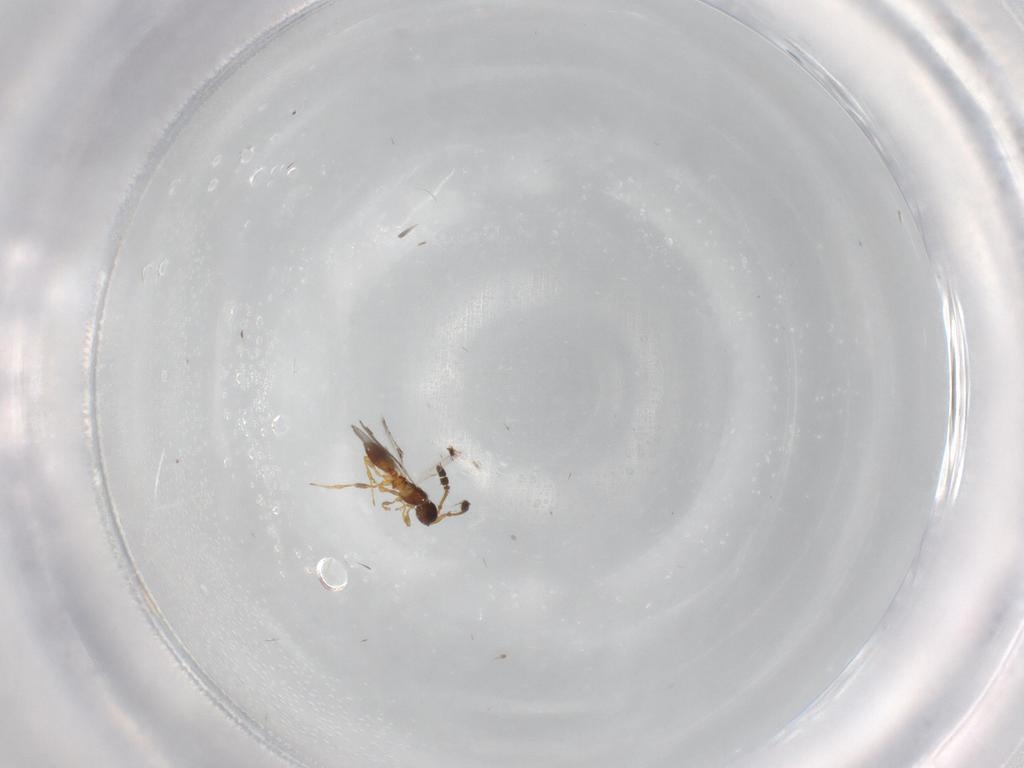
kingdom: Animalia
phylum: Arthropoda
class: Insecta
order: Hymenoptera
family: Diapriidae
